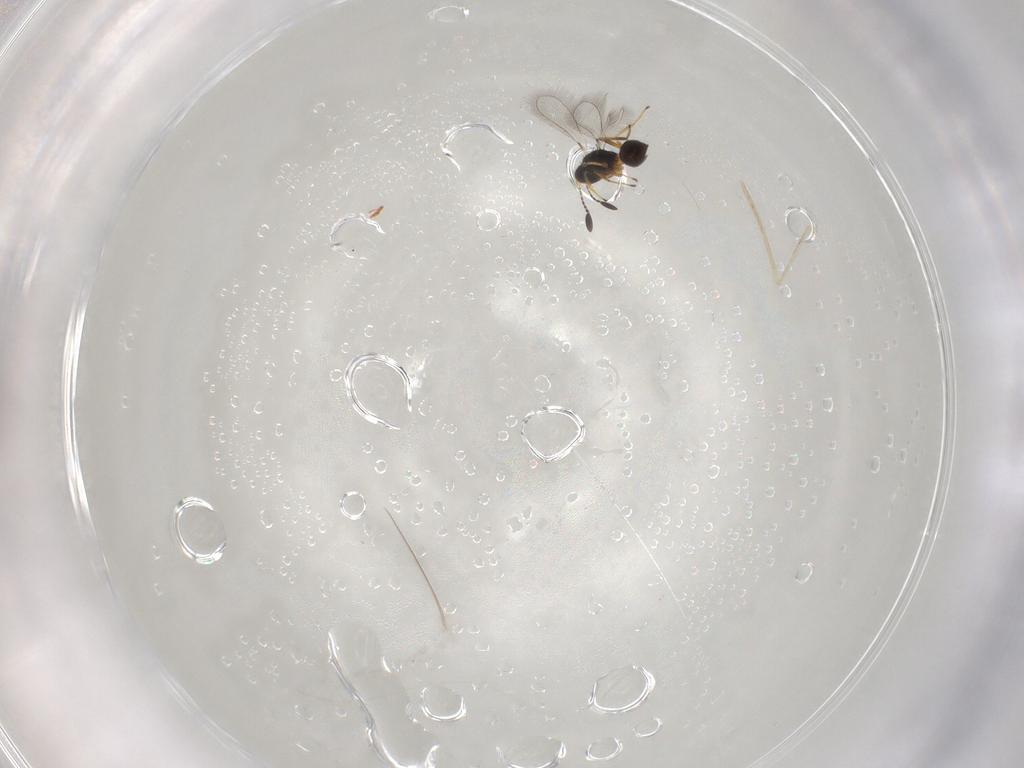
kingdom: Animalia
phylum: Arthropoda
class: Insecta
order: Hymenoptera
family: Mymaridae
